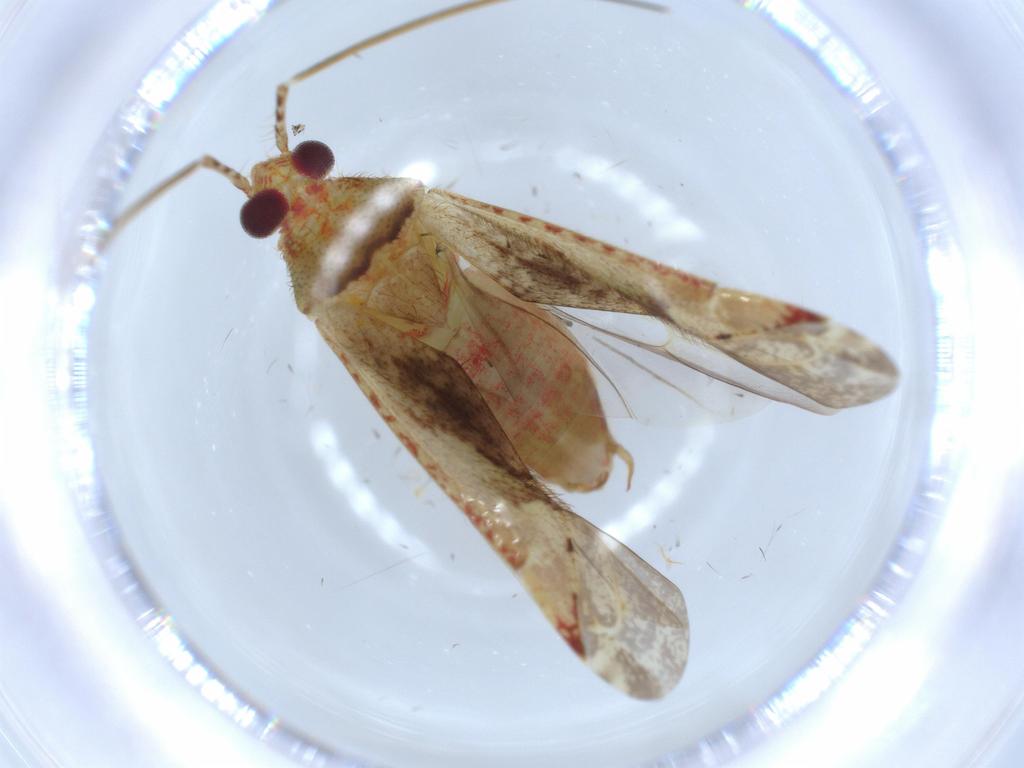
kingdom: Animalia
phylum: Arthropoda
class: Insecta
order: Hemiptera
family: Miridae
